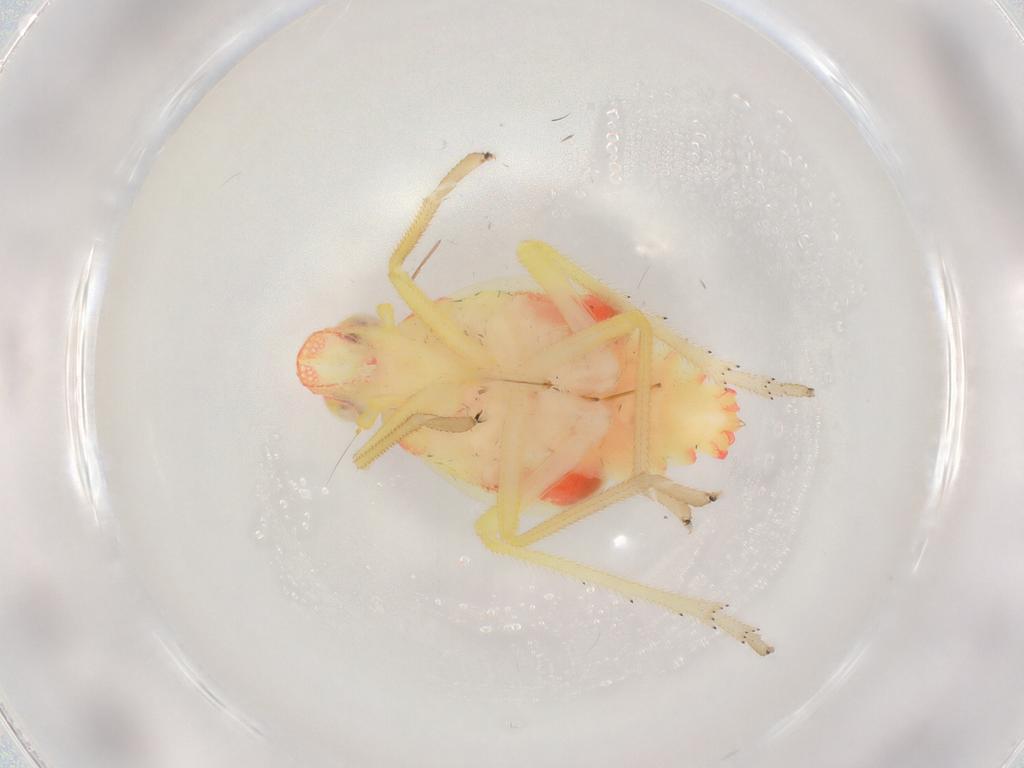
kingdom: Animalia
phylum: Arthropoda
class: Insecta
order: Hemiptera
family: Tropiduchidae
